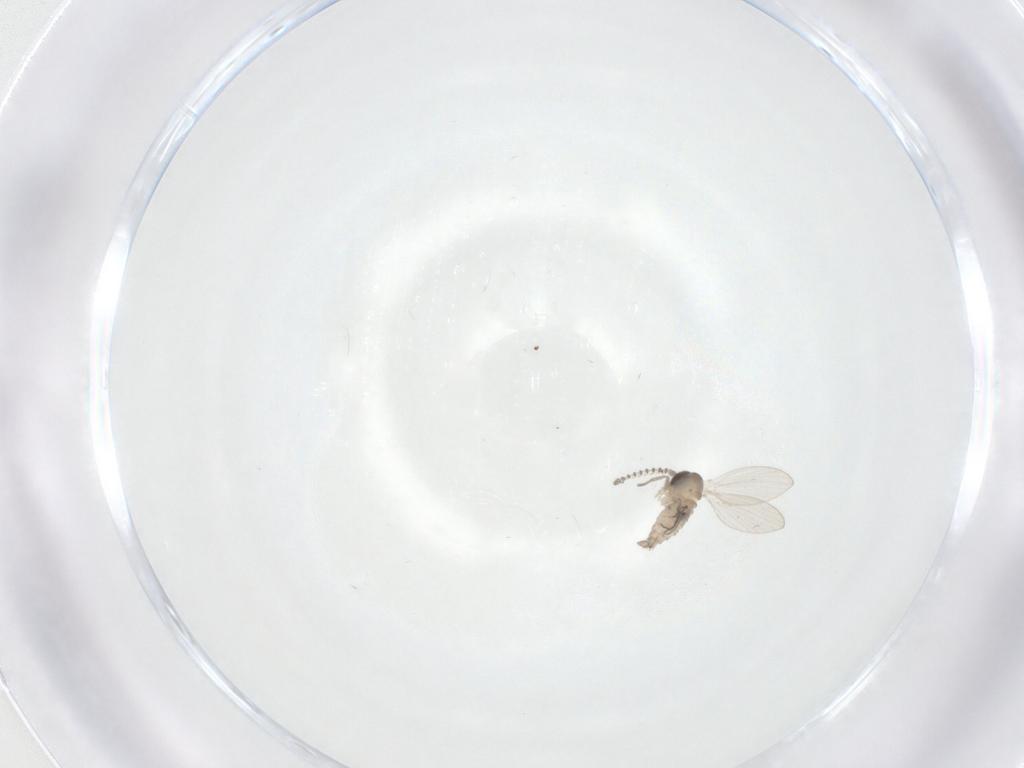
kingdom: Animalia
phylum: Arthropoda
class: Insecta
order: Diptera
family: Psychodidae
